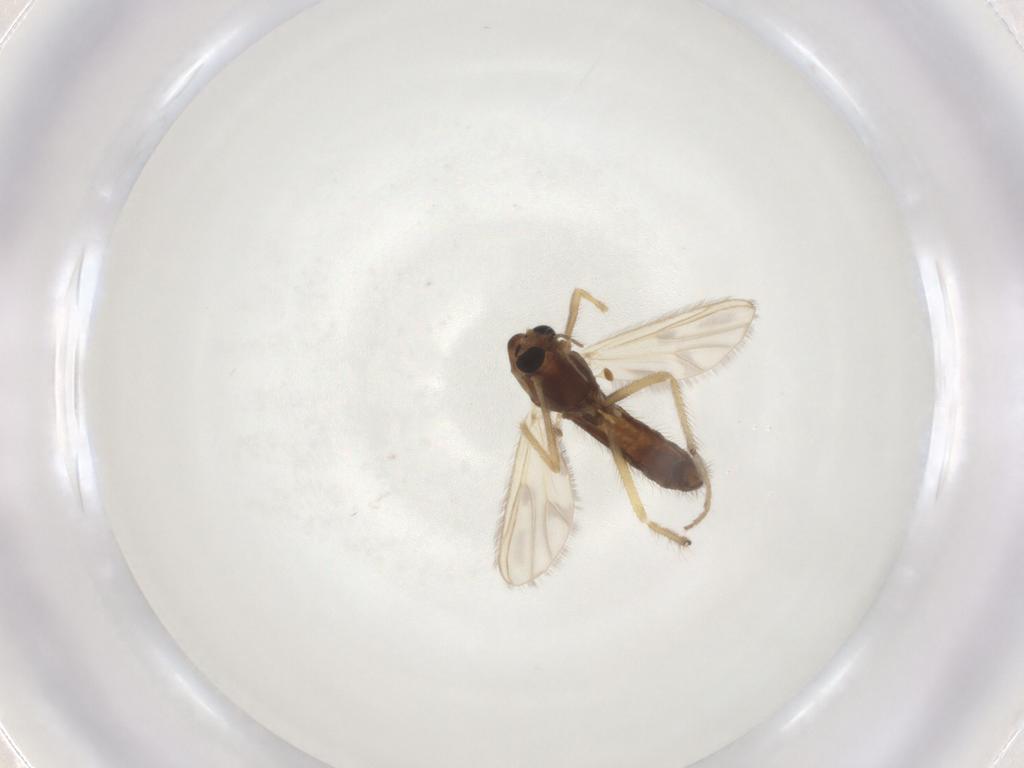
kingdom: Animalia
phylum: Arthropoda
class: Insecta
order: Diptera
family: Chironomidae
